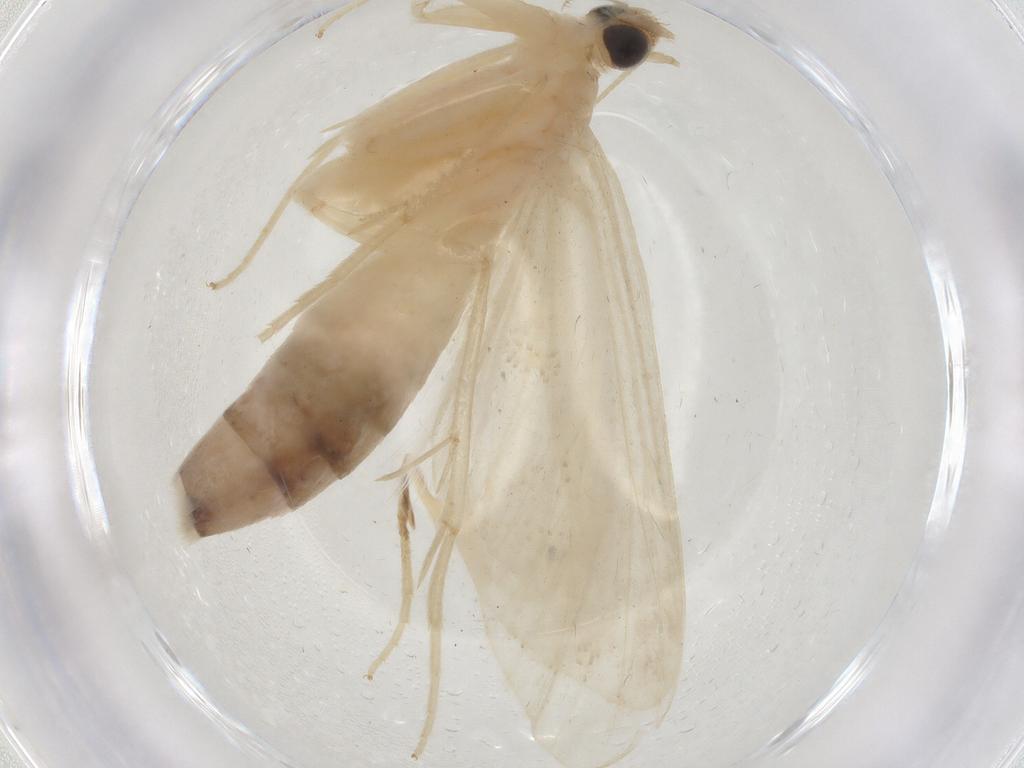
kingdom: Animalia
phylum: Arthropoda
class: Insecta
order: Lepidoptera
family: Crambidae
